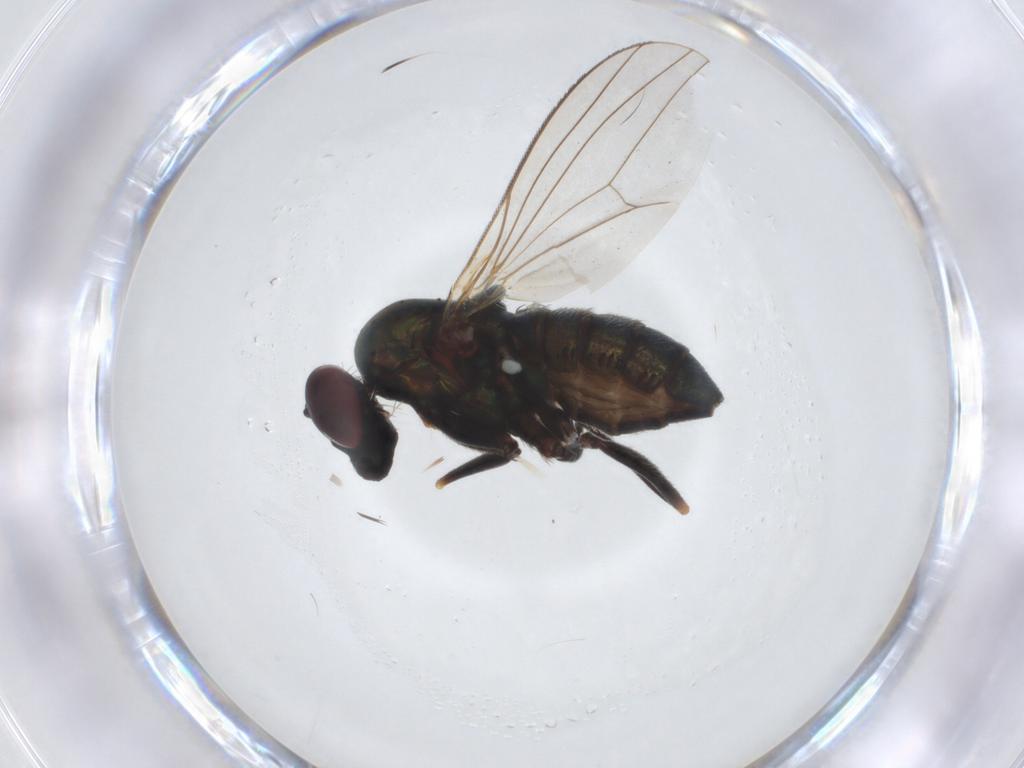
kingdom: Animalia
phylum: Arthropoda
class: Insecta
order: Diptera
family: Dolichopodidae
